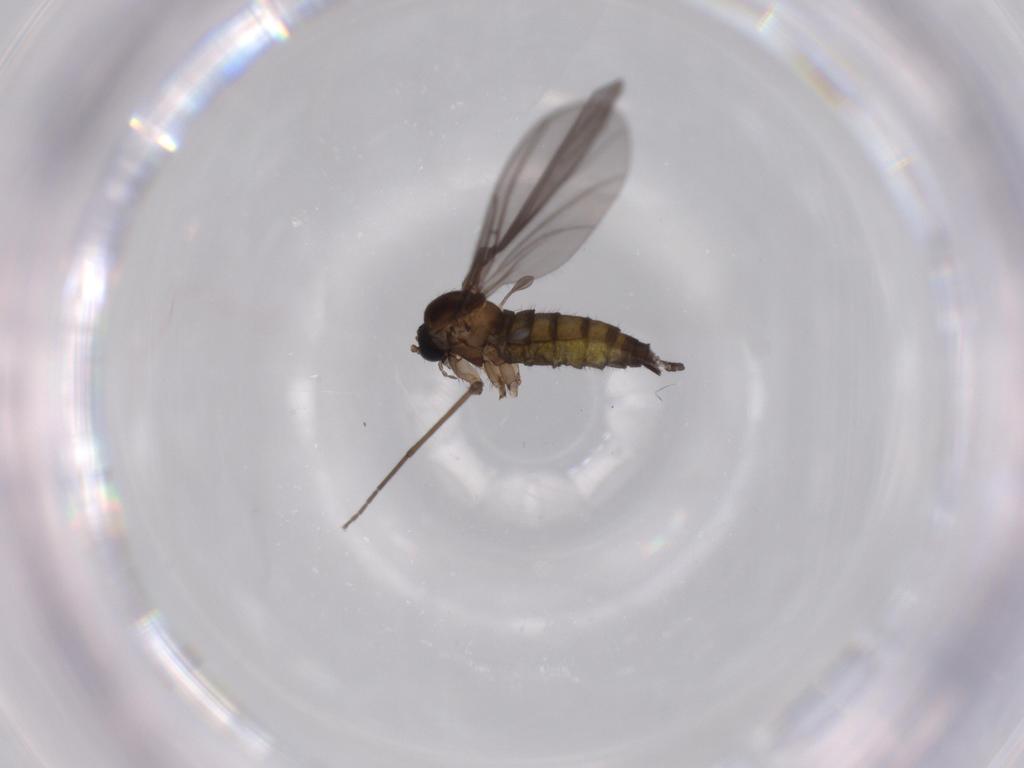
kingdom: Animalia
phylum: Arthropoda
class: Insecta
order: Diptera
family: Sciaridae
